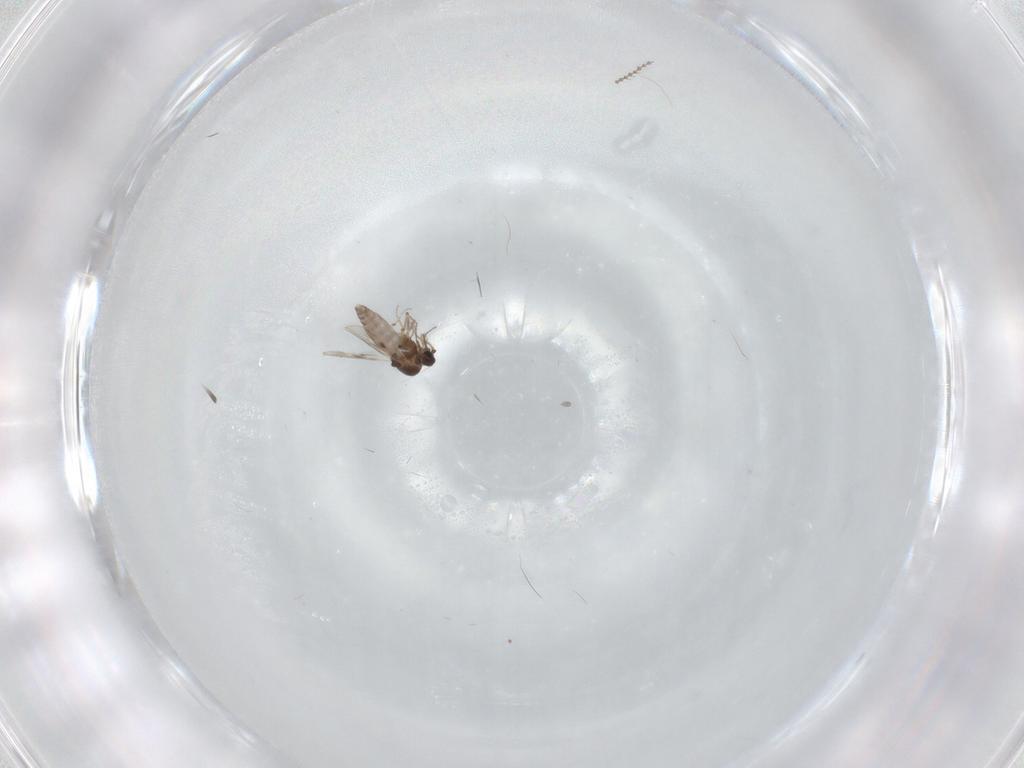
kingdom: Animalia
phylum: Arthropoda
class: Insecta
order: Diptera
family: Cecidomyiidae
